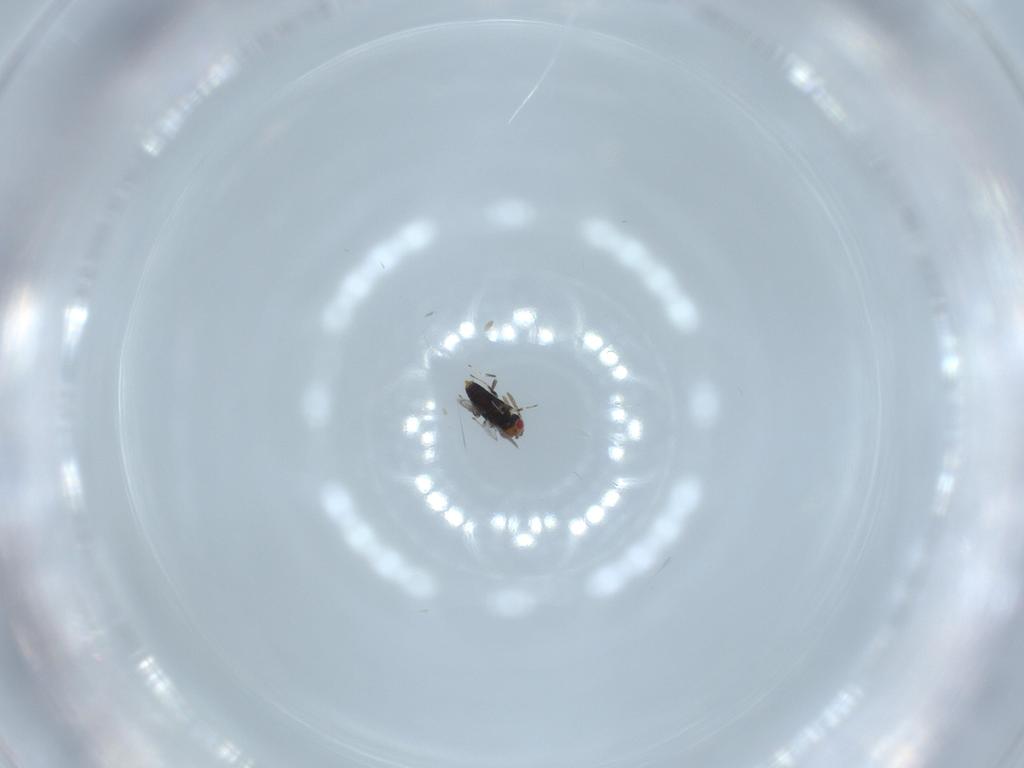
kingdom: Animalia
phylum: Arthropoda
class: Insecta
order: Hymenoptera
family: Azotidae
